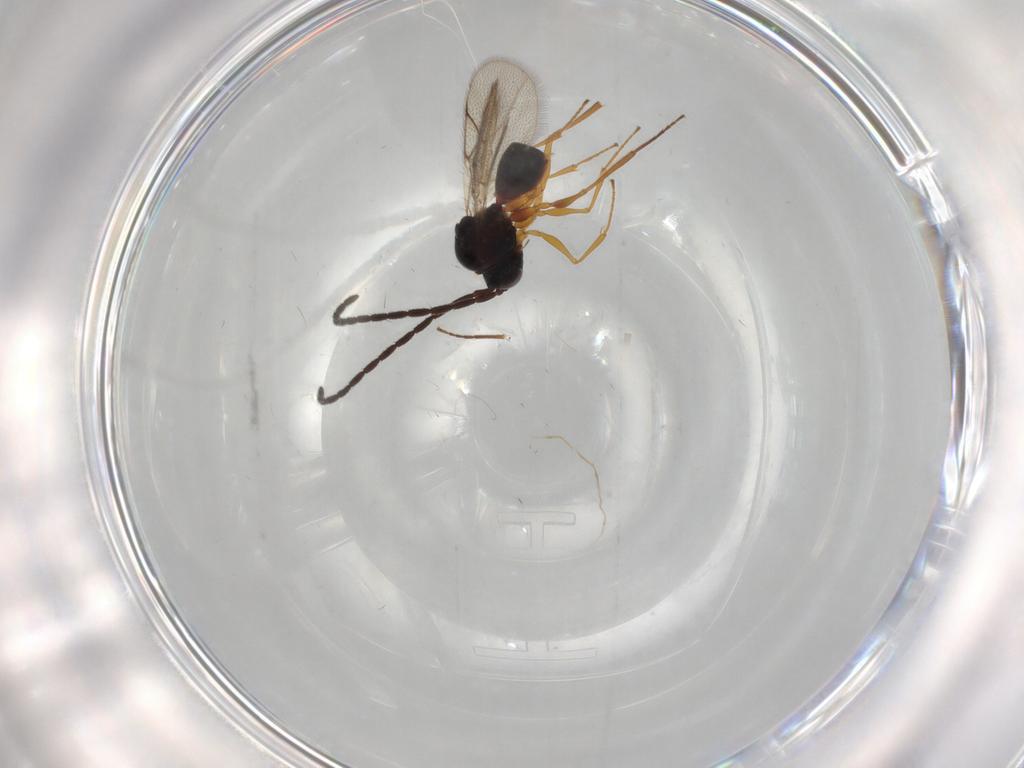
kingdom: Animalia
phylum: Arthropoda
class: Insecta
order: Hymenoptera
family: Figitidae
